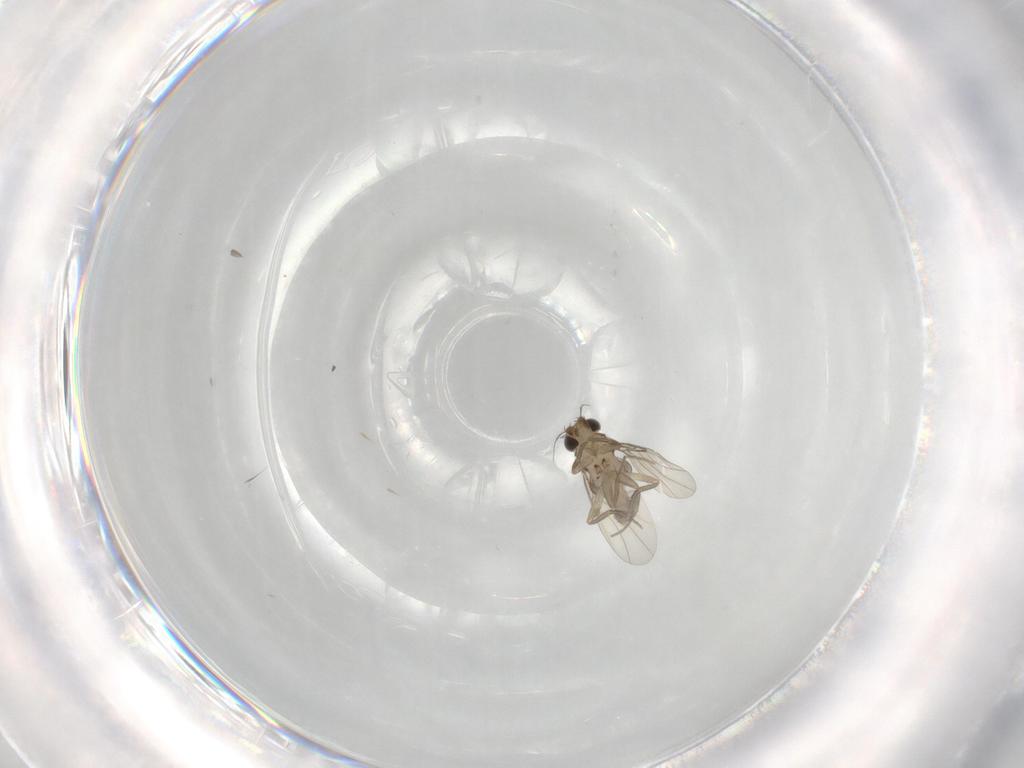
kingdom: Animalia
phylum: Arthropoda
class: Insecta
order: Diptera
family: Phoridae
